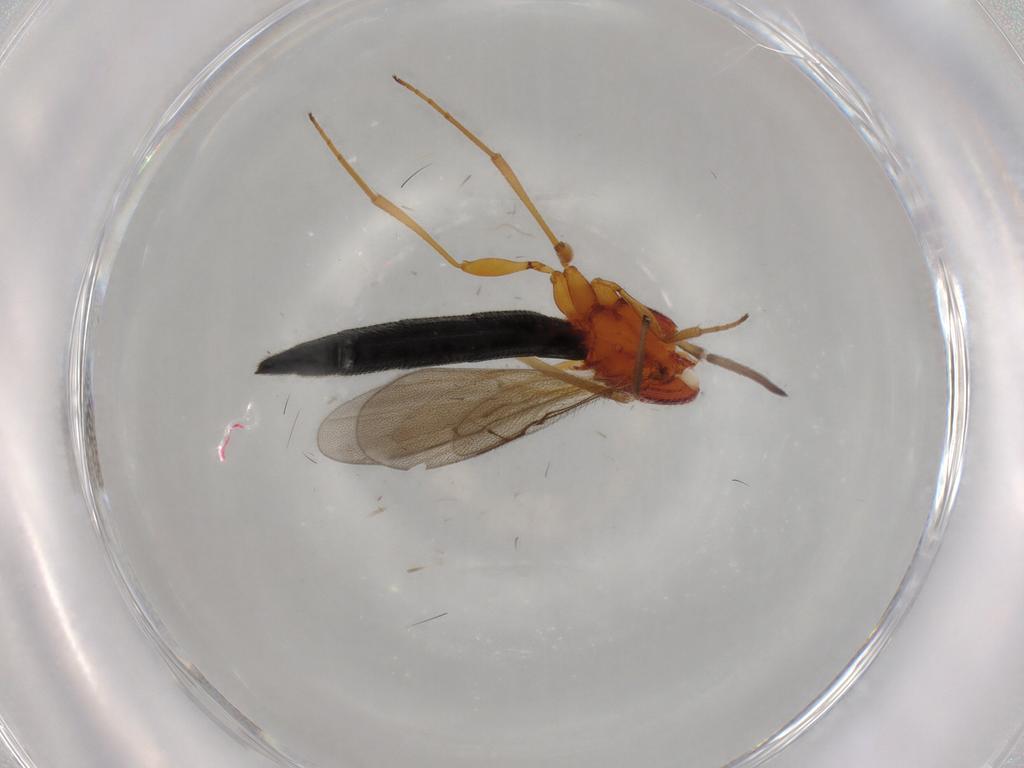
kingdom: Animalia
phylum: Arthropoda
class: Insecta
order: Hymenoptera
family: Scelionidae
